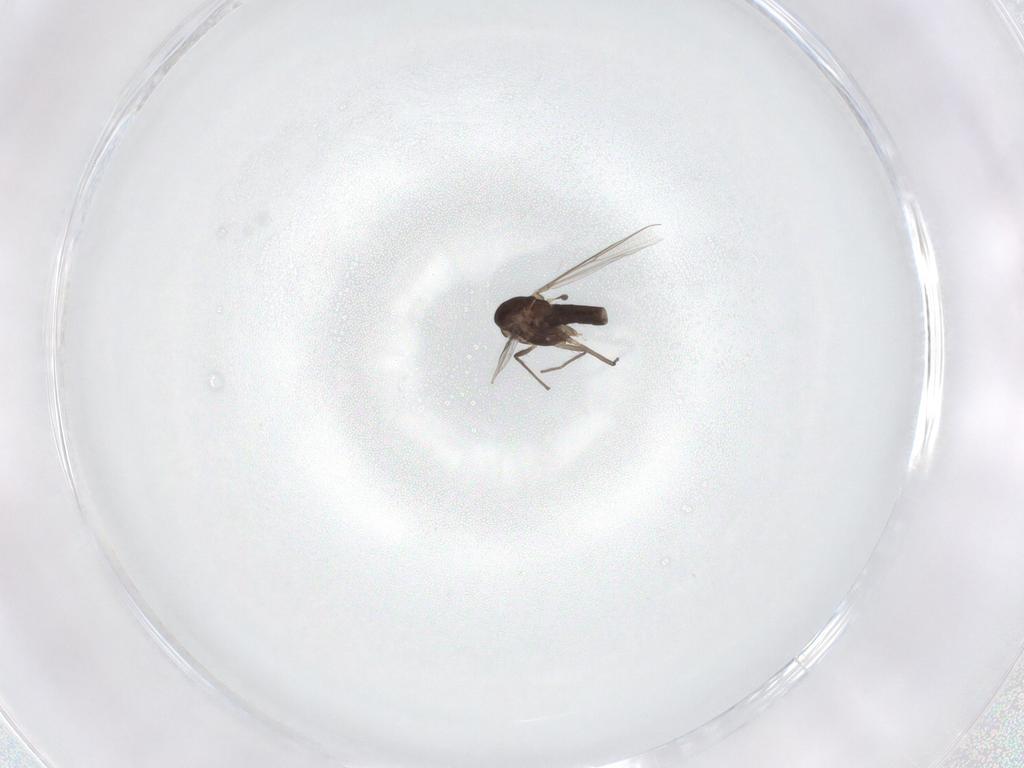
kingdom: Animalia
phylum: Arthropoda
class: Insecta
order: Diptera
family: Chironomidae
